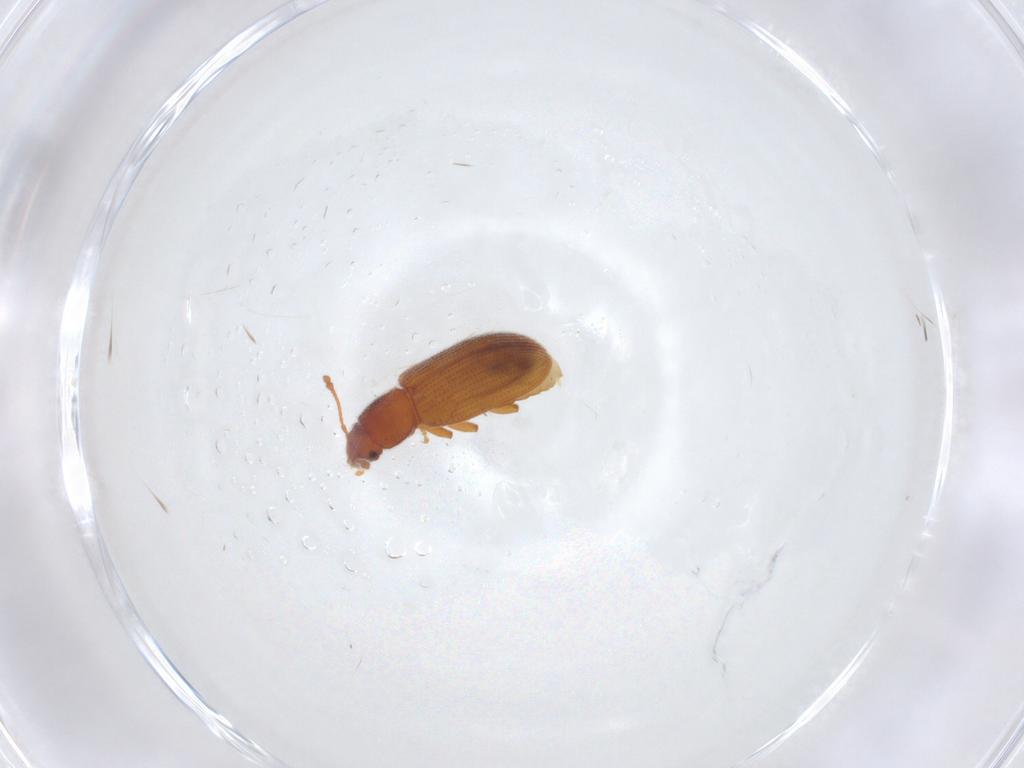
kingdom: Animalia
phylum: Arthropoda
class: Insecta
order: Coleoptera
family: Mycetophagidae
